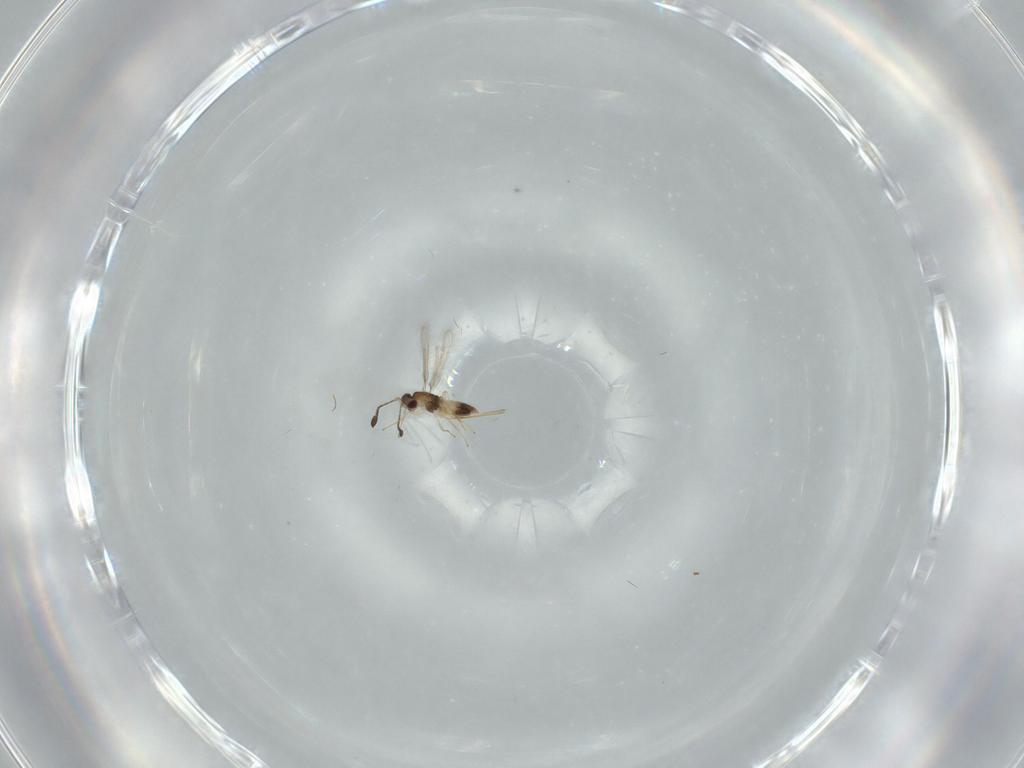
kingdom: Animalia
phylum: Arthropoda
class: Insecta
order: Hymenoptera
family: Mymaridae
